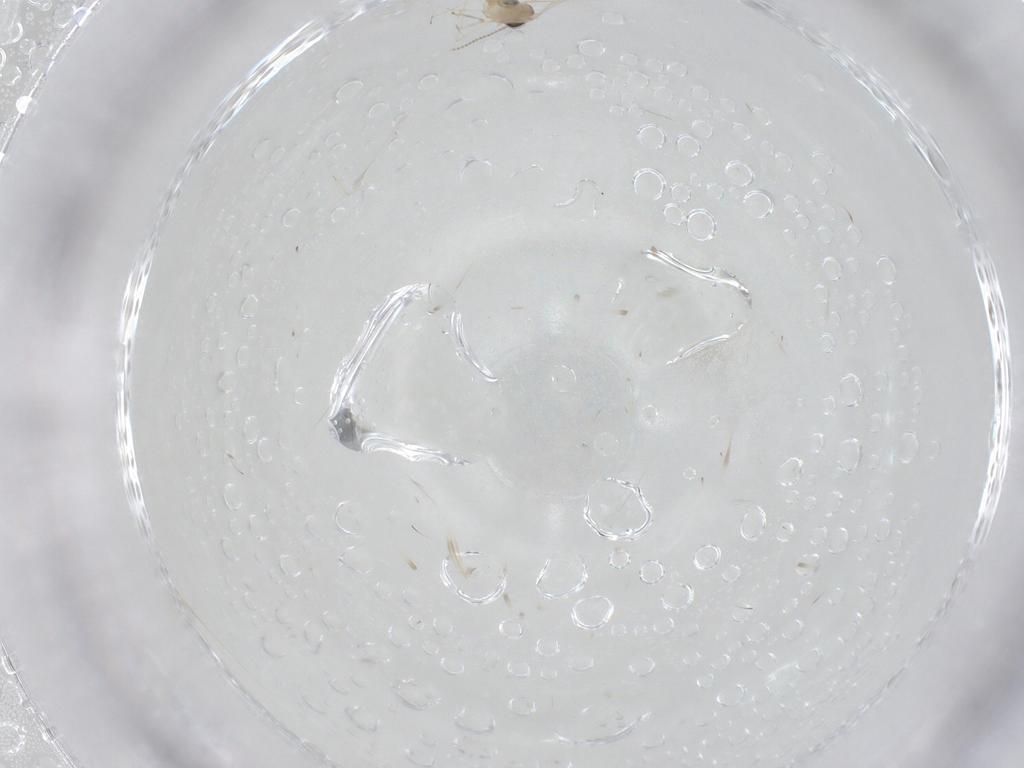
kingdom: Animalia
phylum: Arthropoda
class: Insecta
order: Diptera
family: Cecidomyiidae
